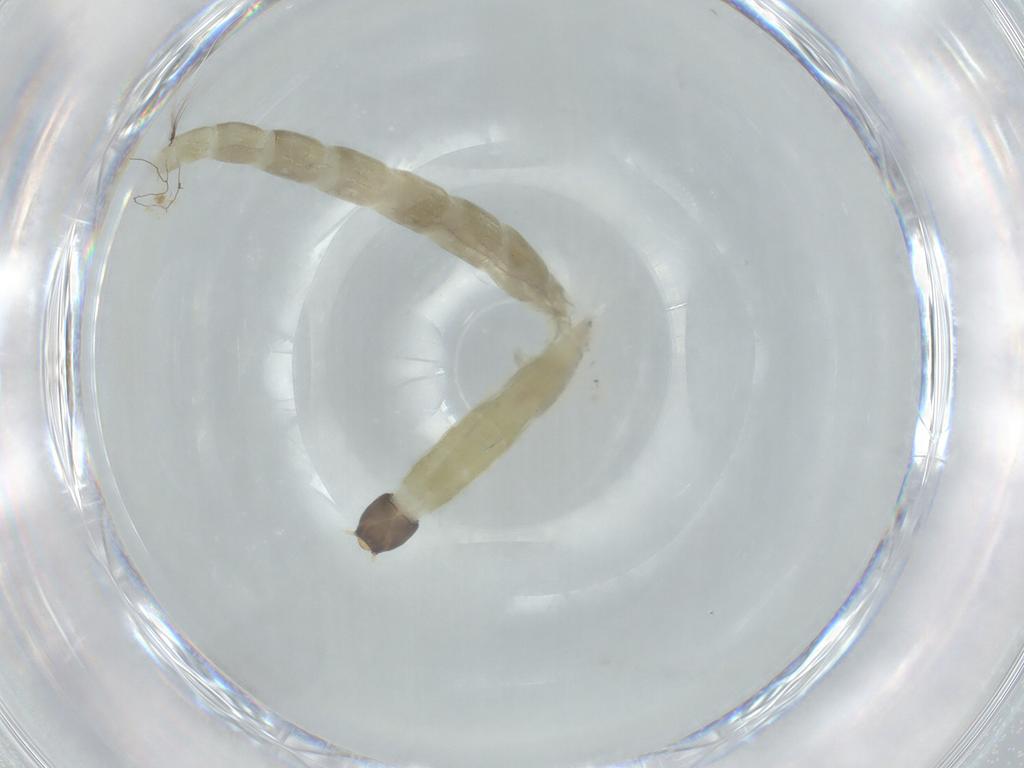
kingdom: Animalia
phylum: Arthropoda
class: Insecta
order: Diptera
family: Chironomidae
